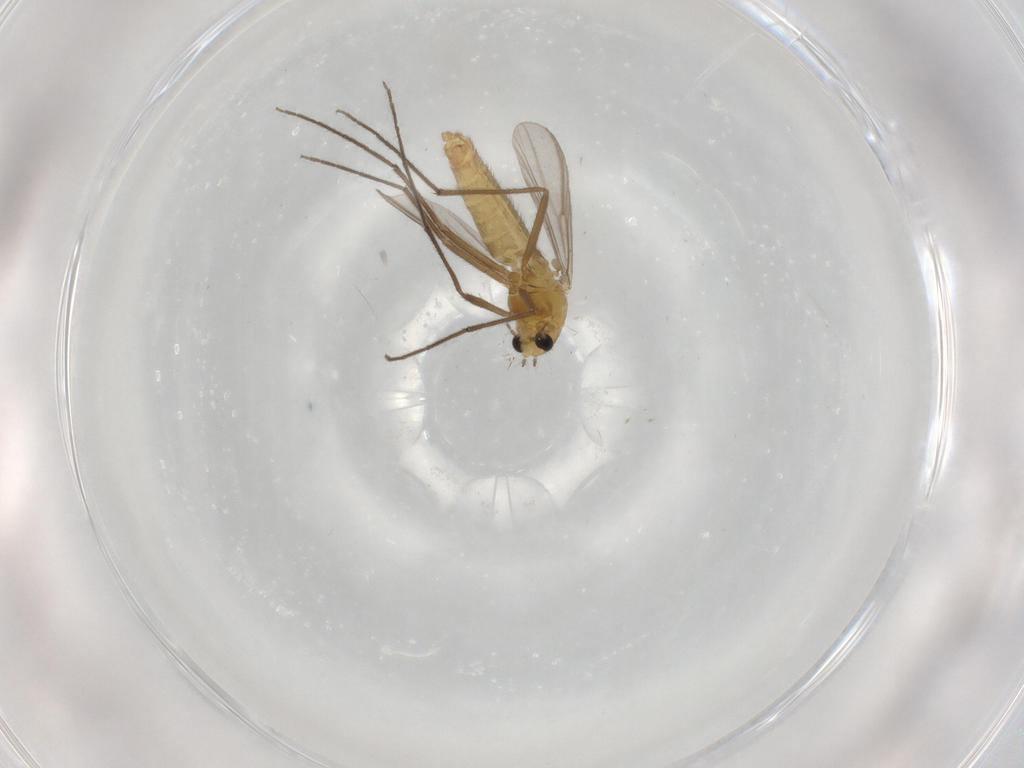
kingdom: Animalia
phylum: Arthropoda
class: Insecta
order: Diptera
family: Chironomidae
